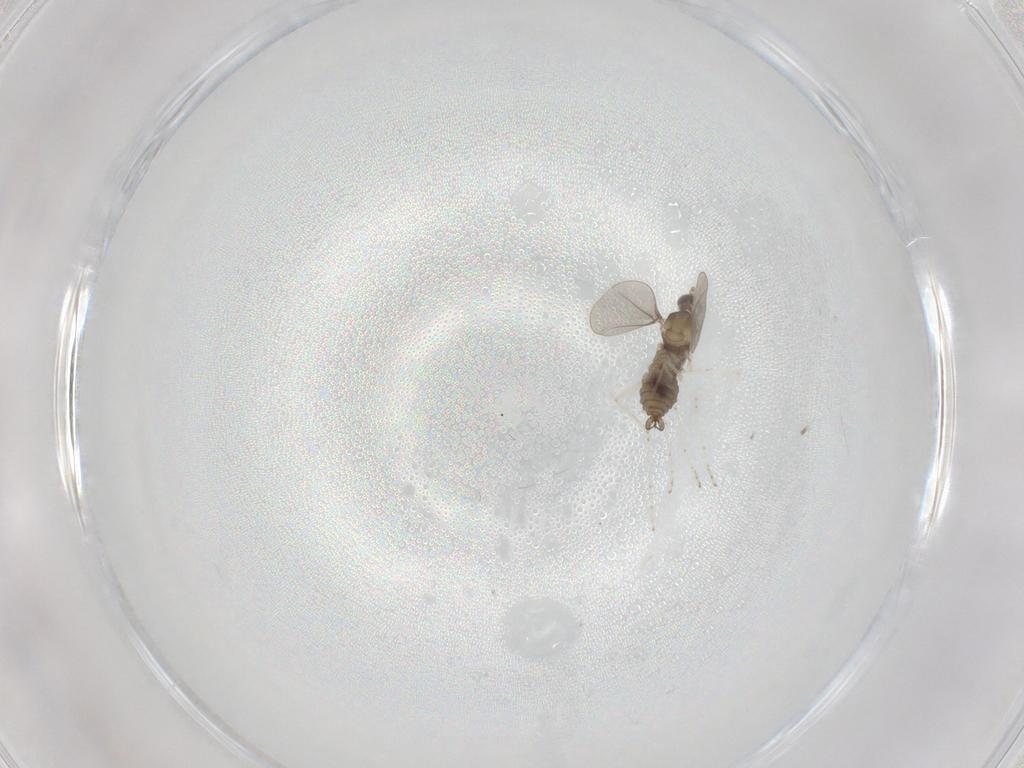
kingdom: Animalia
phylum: Arthropoda
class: Insecta
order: Diptera
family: Cecidomyiidae
